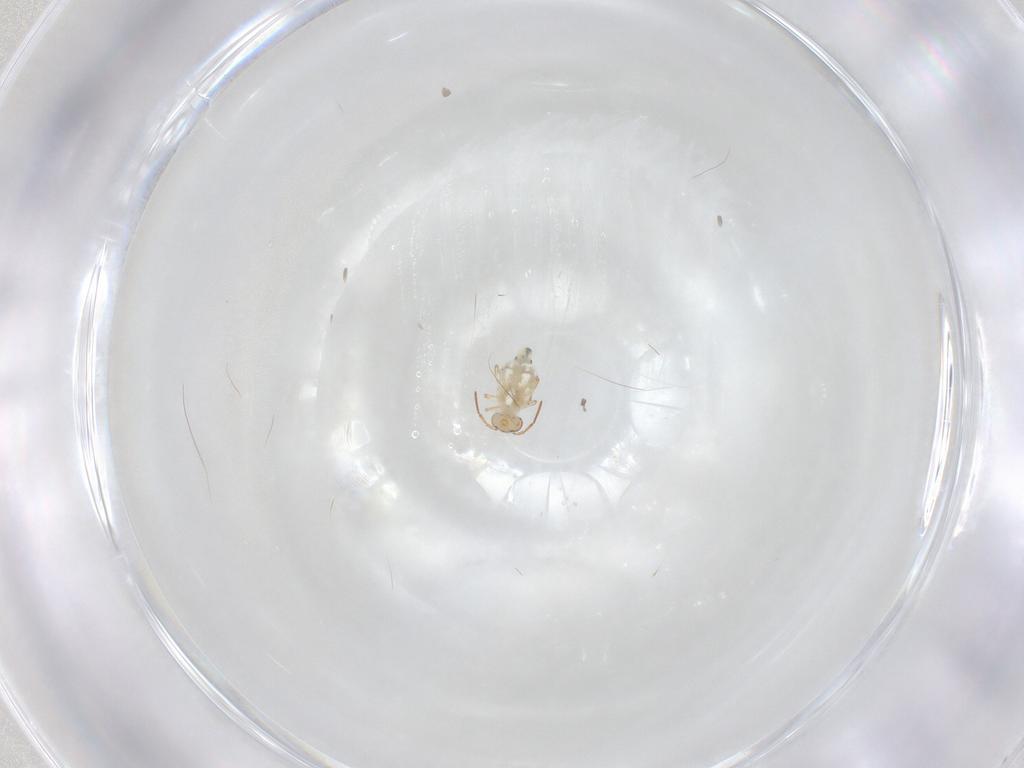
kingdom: Animalia
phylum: Arthropoda
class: Collembola
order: Symphypleona
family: Bourletiellidae
